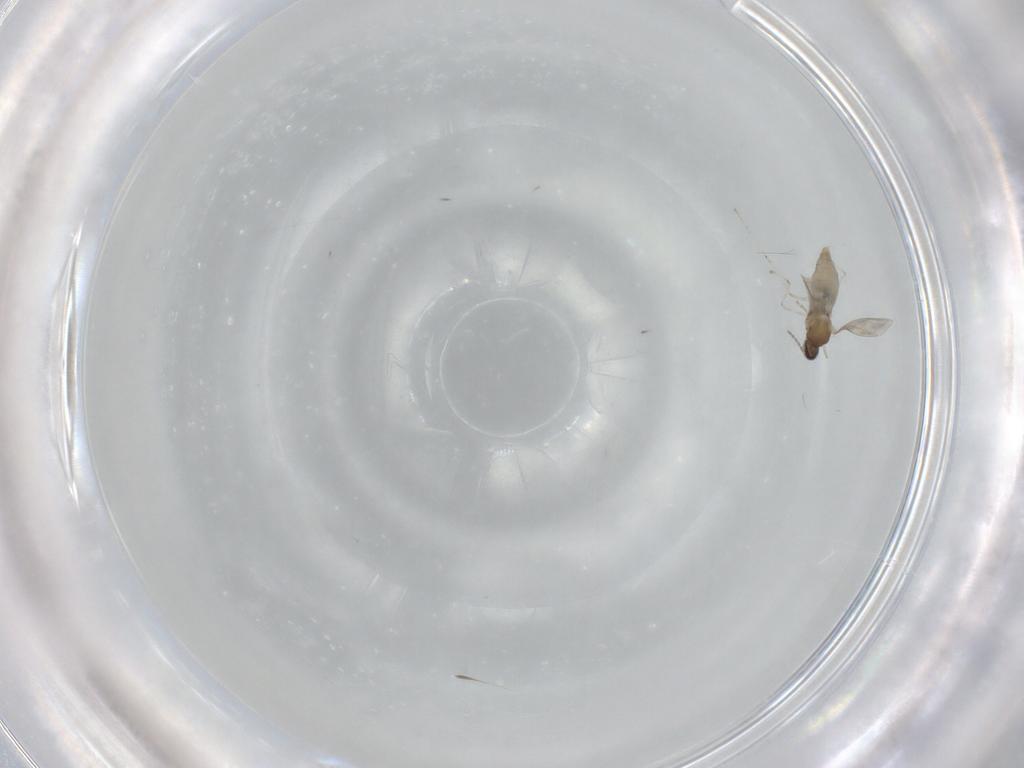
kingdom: Animalia
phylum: Arthropoda
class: Insecta
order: Diptera
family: Cecidomyiidae
